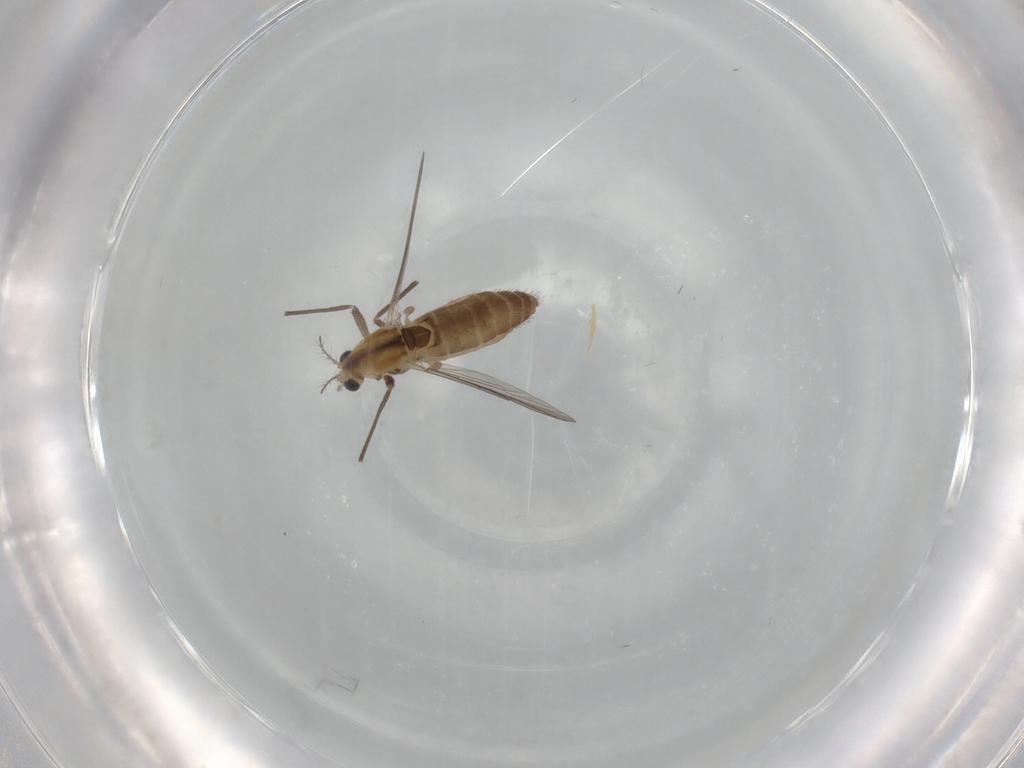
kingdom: Animalia
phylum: Arthropoda
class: Insecta
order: Diptera
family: Chironomidae
